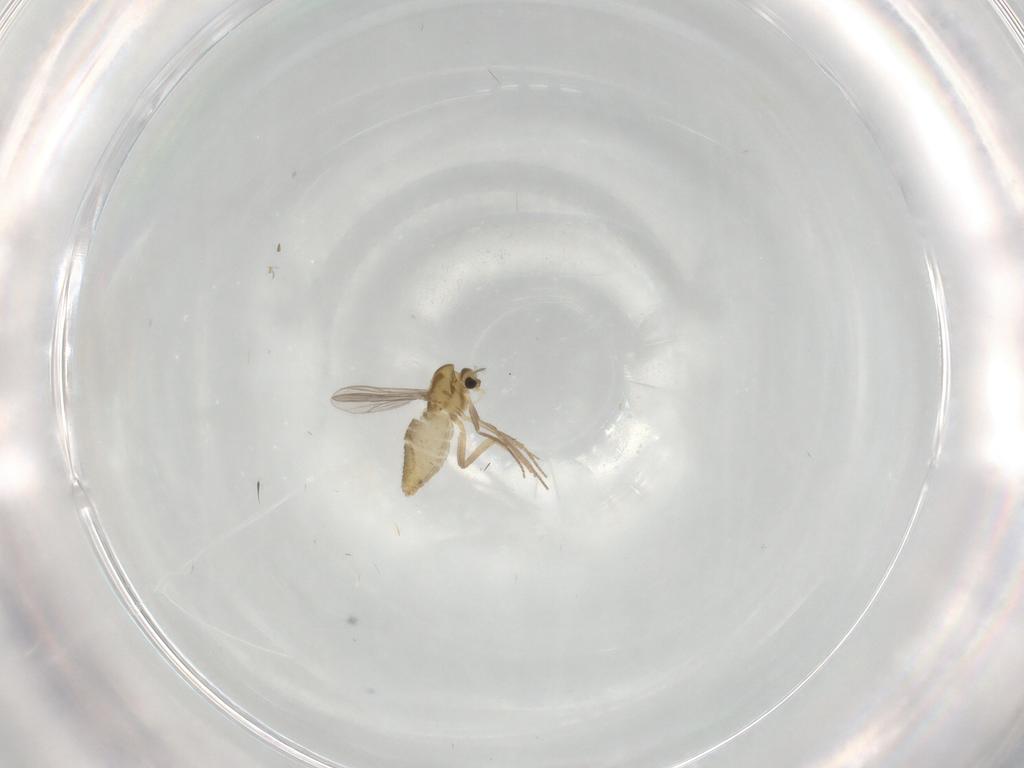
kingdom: Animalia
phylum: Arthropoda
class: Insecta
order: Diptera
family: Chironomidae
